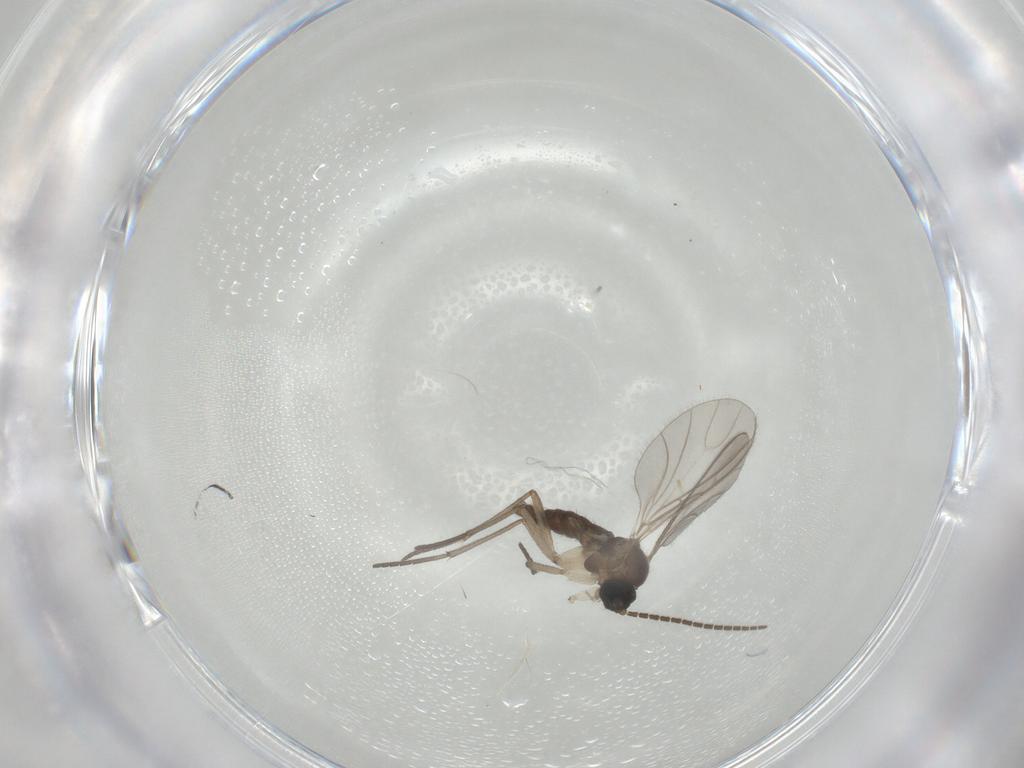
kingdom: Animalia
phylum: Arthropoda
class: Insecta
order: Diptera
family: Sciaridae
